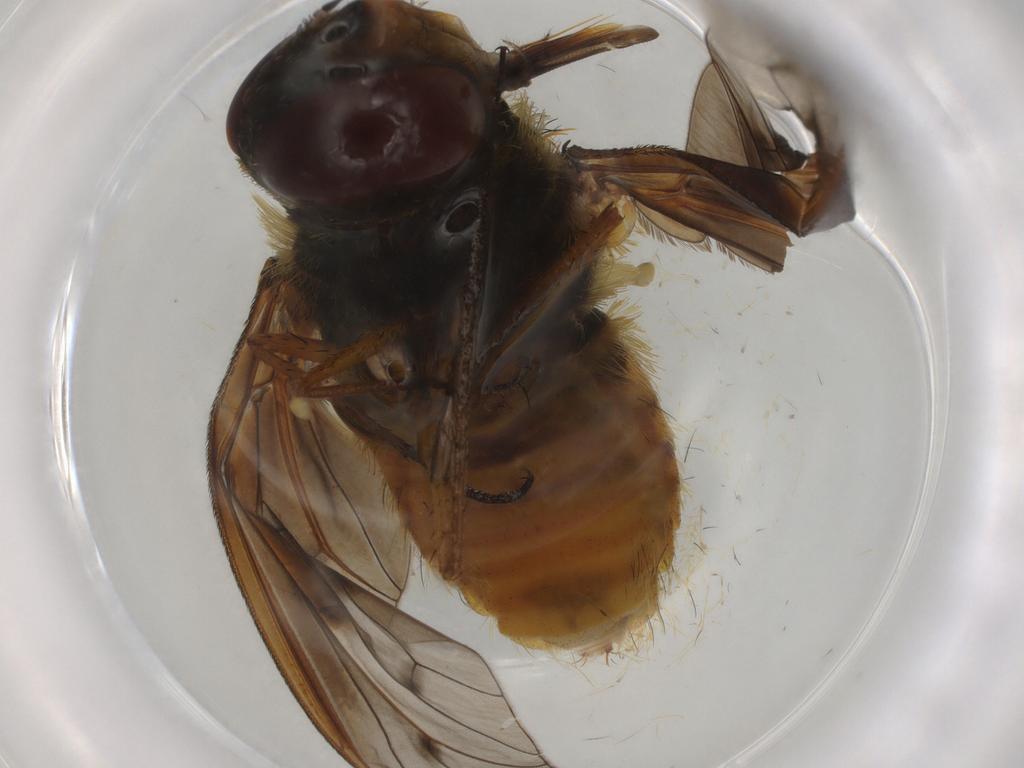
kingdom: Animalia
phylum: Arthropoda
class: Insecta
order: Diptera
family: Bombyliidae
